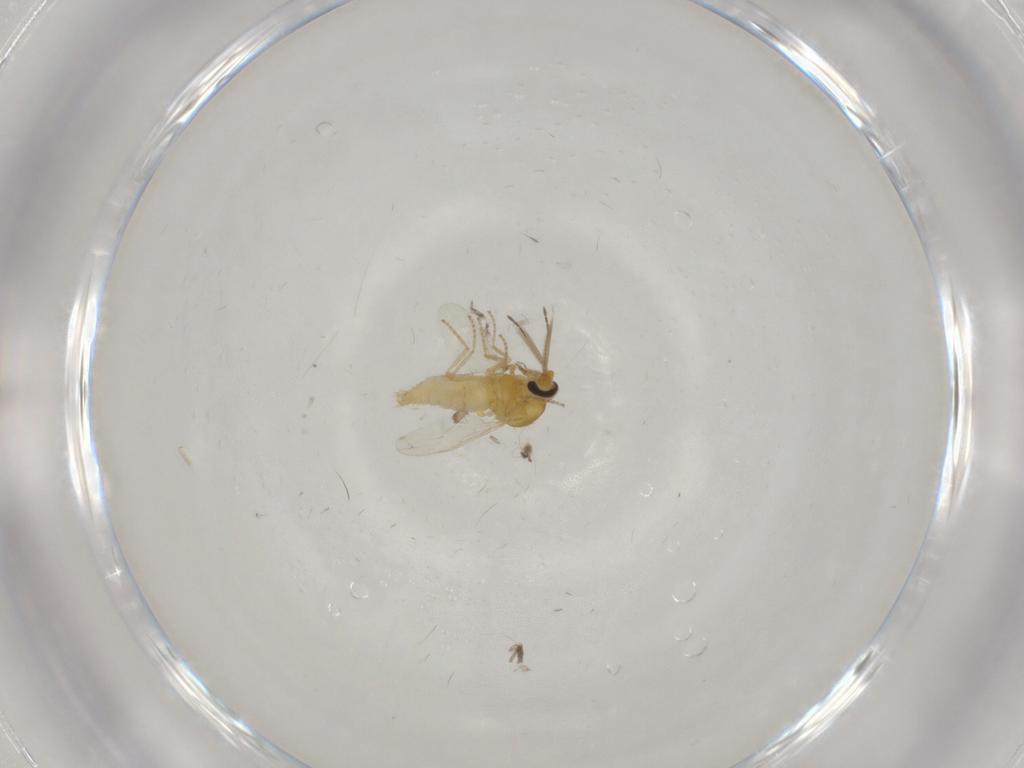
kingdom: Animalia
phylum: Arthropoda
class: Insecta
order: Diptera
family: Ceratopogonidae
